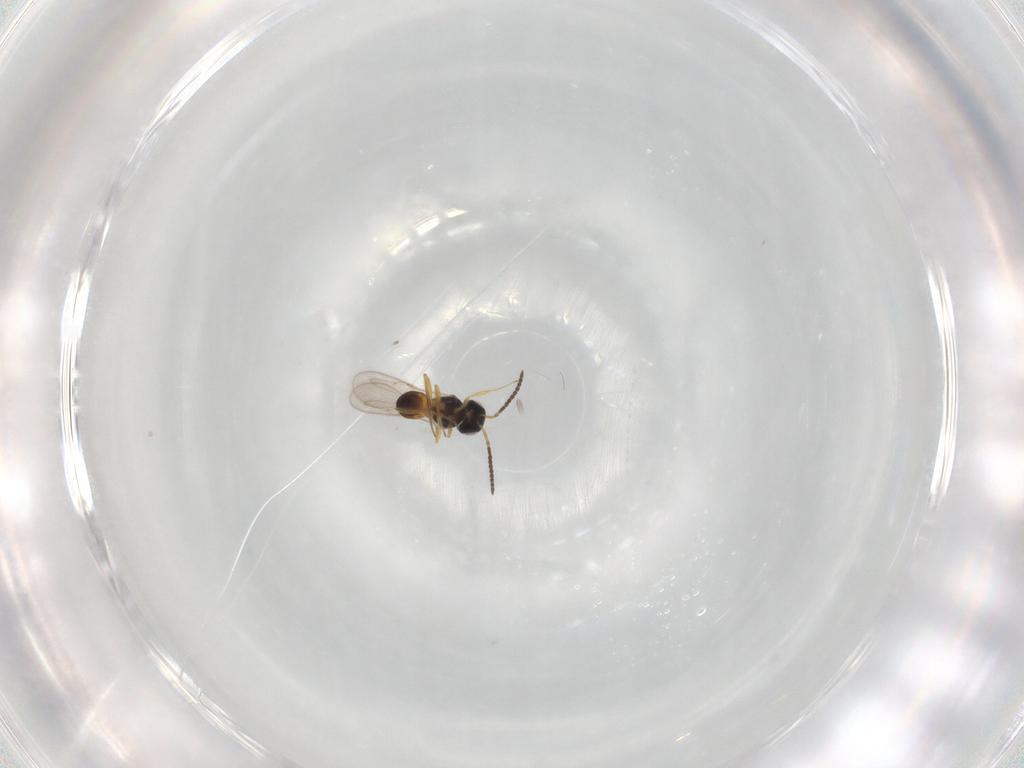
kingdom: Animalia
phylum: Arthropoda
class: Insecta
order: Hymenoptera
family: Scelionidae
